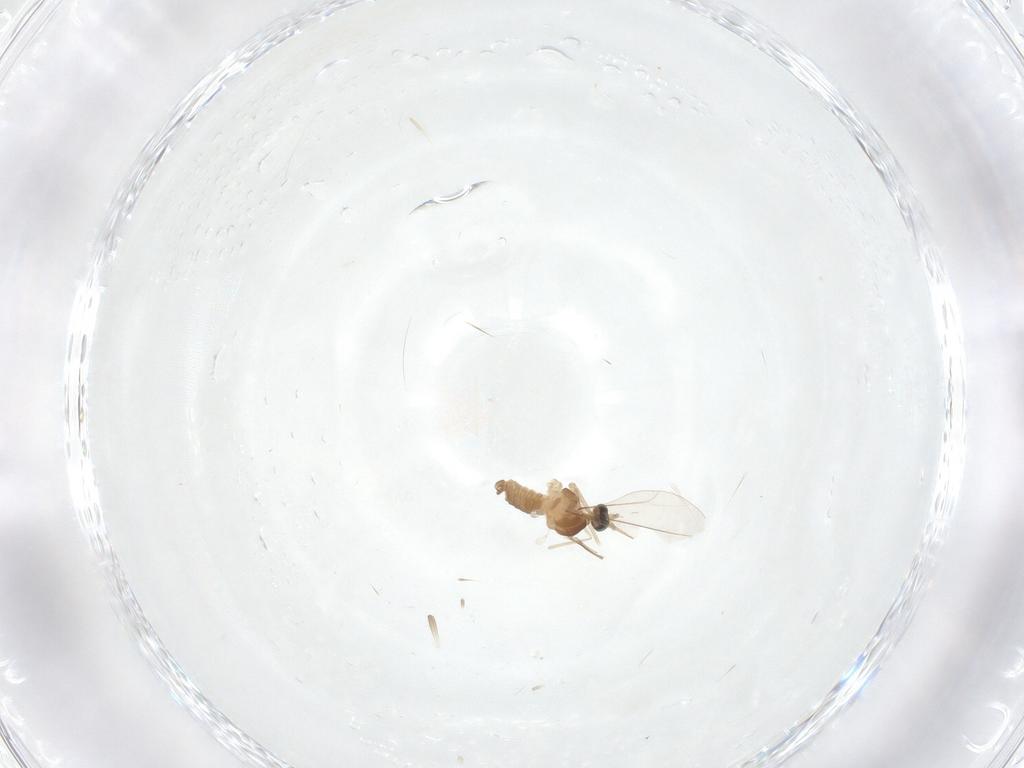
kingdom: Animalia
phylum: Arthropoda
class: Insecta
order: Diptera
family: Cecidomyiidae
